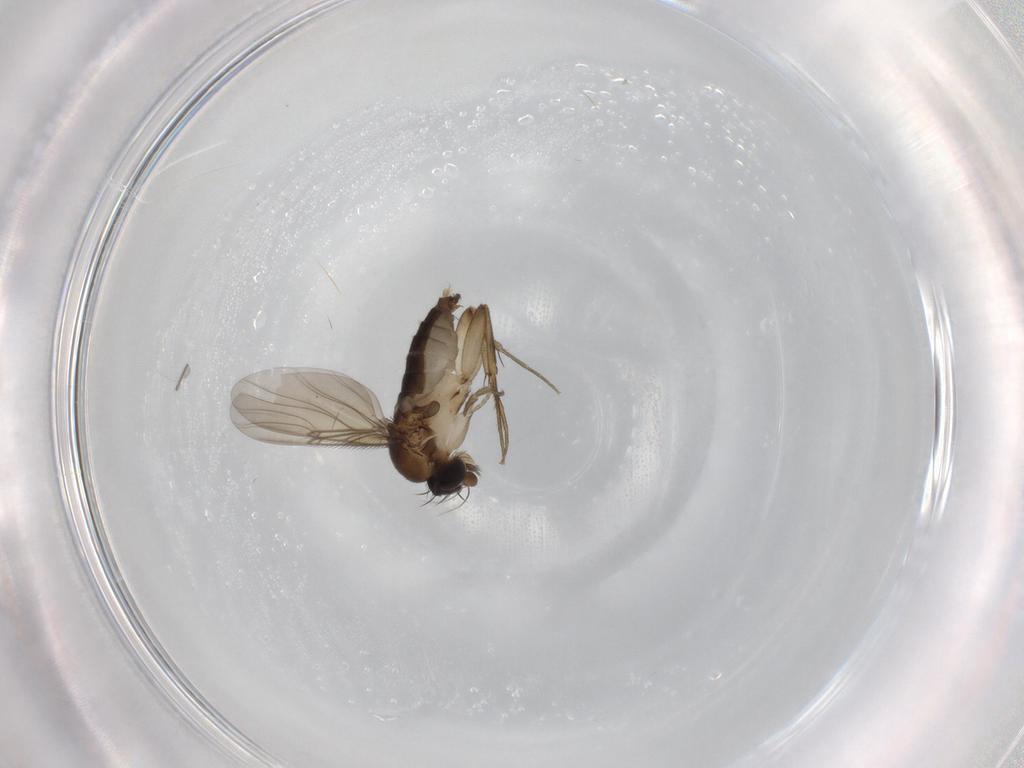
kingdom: Animalia
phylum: Arthropoda
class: Insecta
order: Diptera
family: Phoridae
